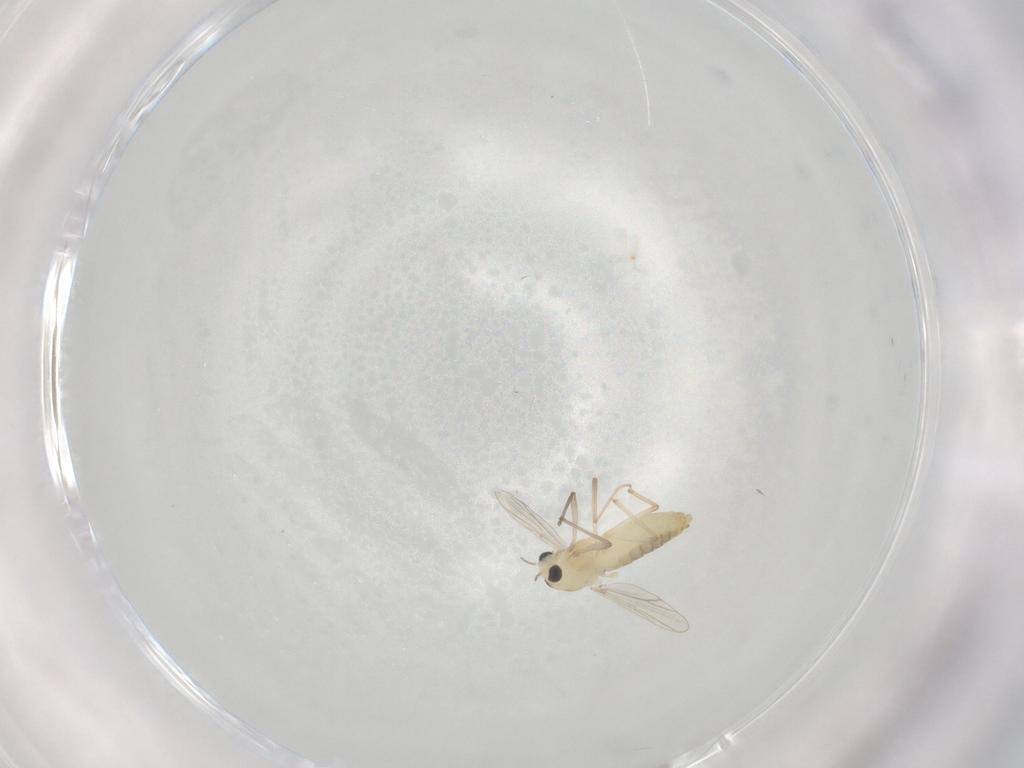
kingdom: Animalia
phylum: Arthropoda
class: Insecta
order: Diptera
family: Chironomidae
